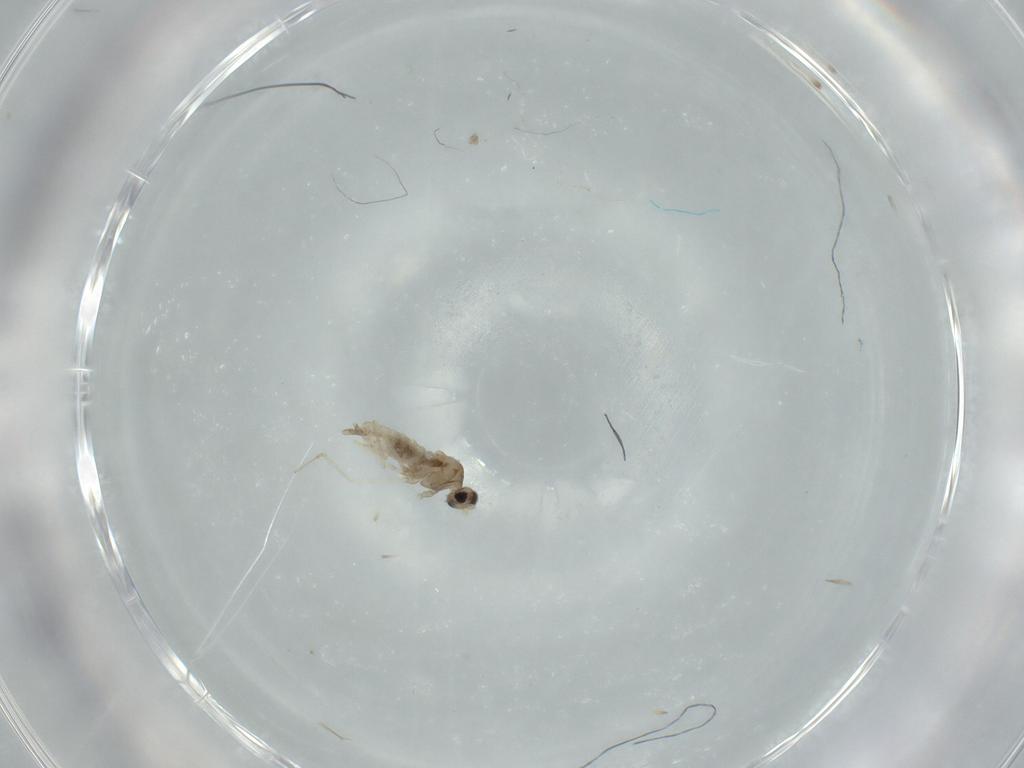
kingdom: Animalia
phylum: Arthropoda
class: Insecta
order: Diptera
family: Cecidomyiidae
